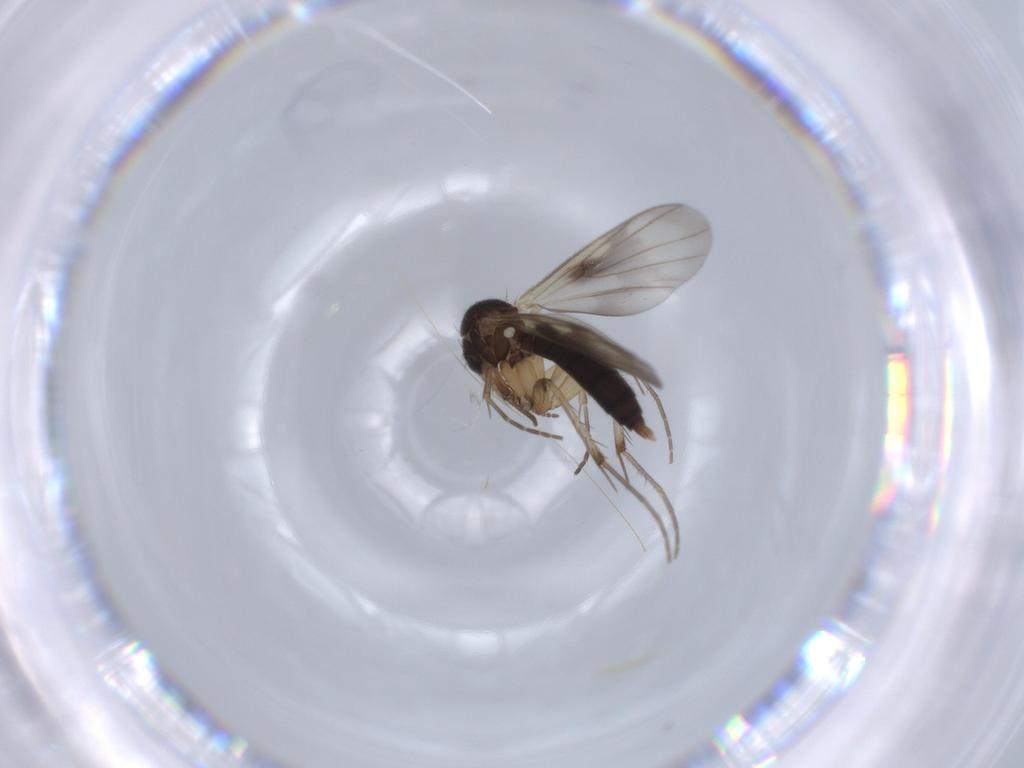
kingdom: Animalia
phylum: Arthropoda
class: Insecta
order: Diptera
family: Culicidae
